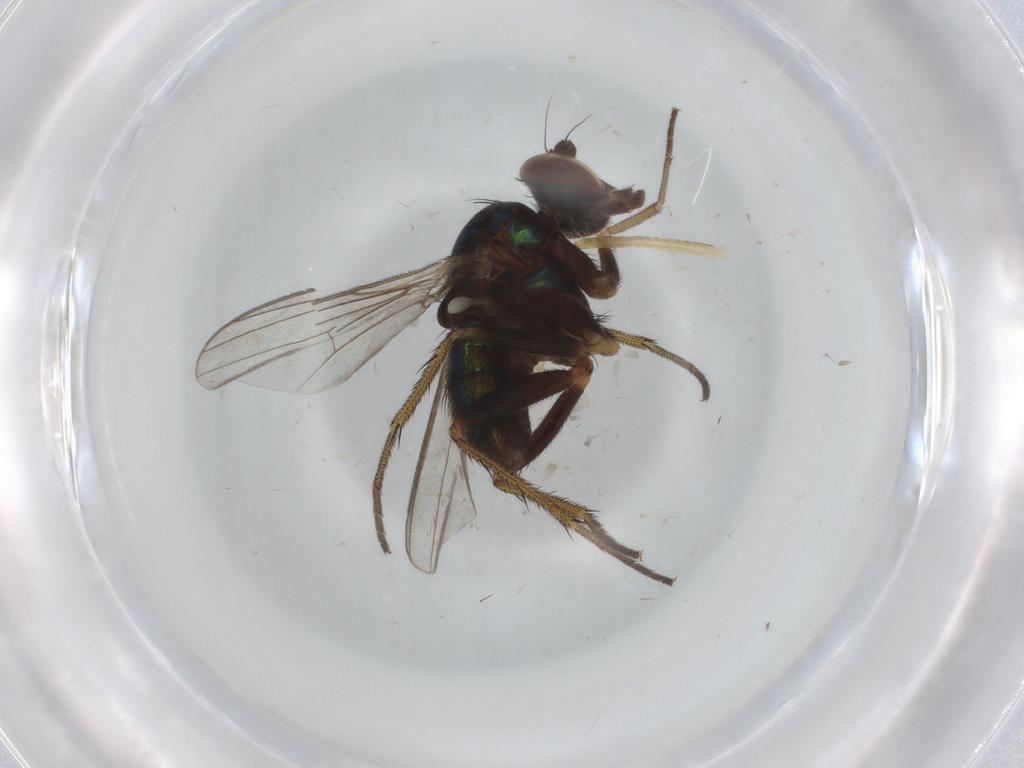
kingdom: Animalia
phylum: Arthropoda
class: Insecta
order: Diptera
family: Culicidae
